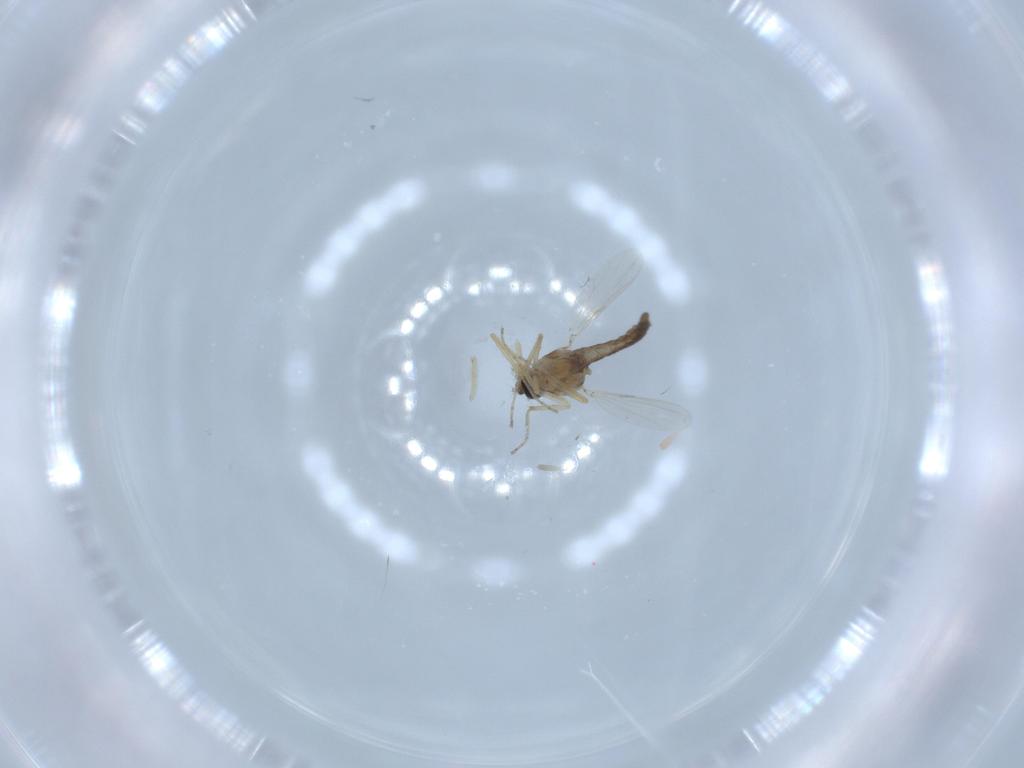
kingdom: Animalia
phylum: Arthropoda
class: Insecta
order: Diptera
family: Ceratopogonidae
